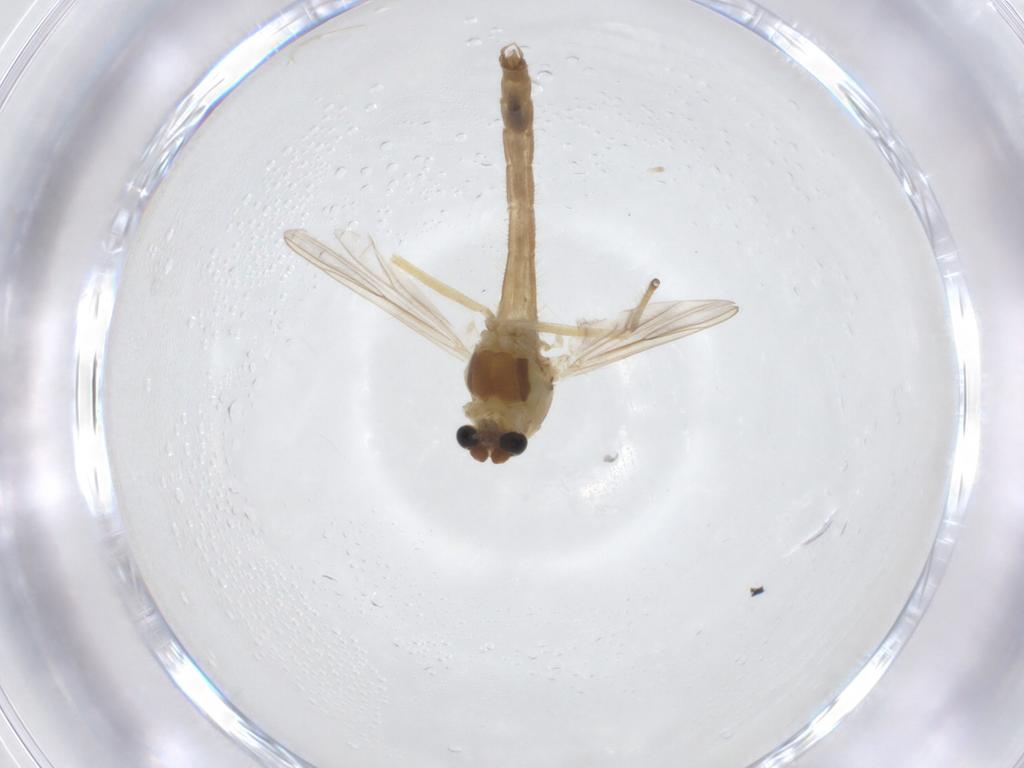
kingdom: Animalia
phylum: Arthropoda
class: Insecta
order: Diptera
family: Chironomidae
